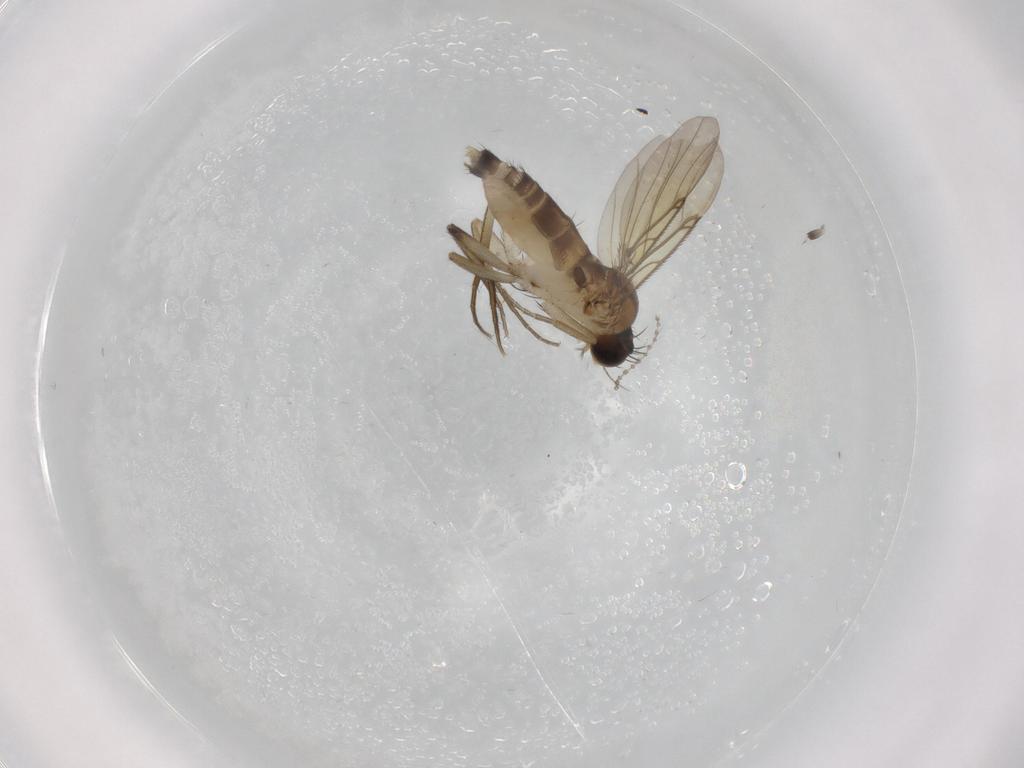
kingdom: Animalia
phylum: Arthropoda
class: Insecta
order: Diptera
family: Phoridae
